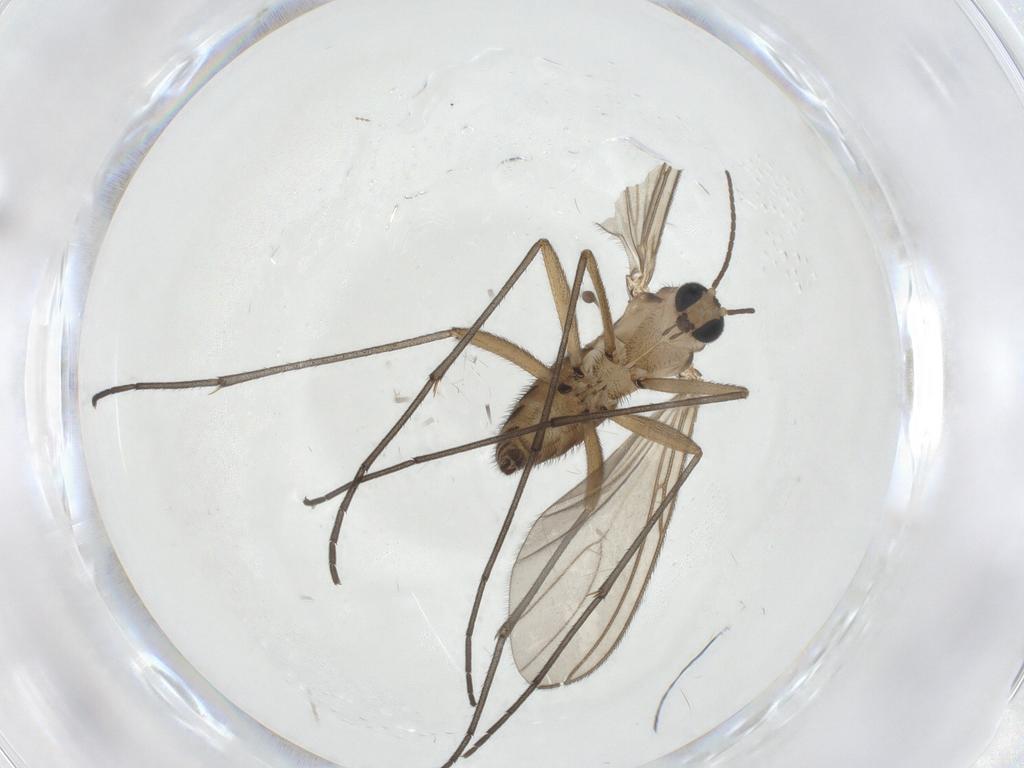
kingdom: Animalia
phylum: Arthropoda
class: Insecta
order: Diptera
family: Sciaridae
